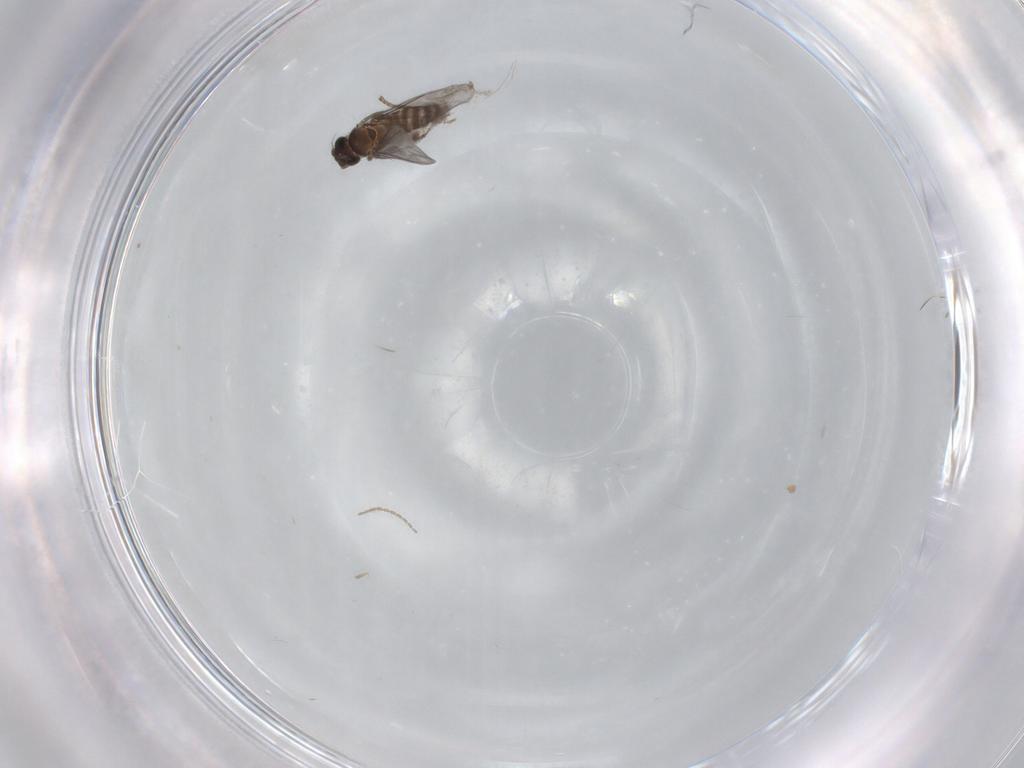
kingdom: Animalia
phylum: Arthropoda
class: Insecta
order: Diptera
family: Cecidomyiidae
